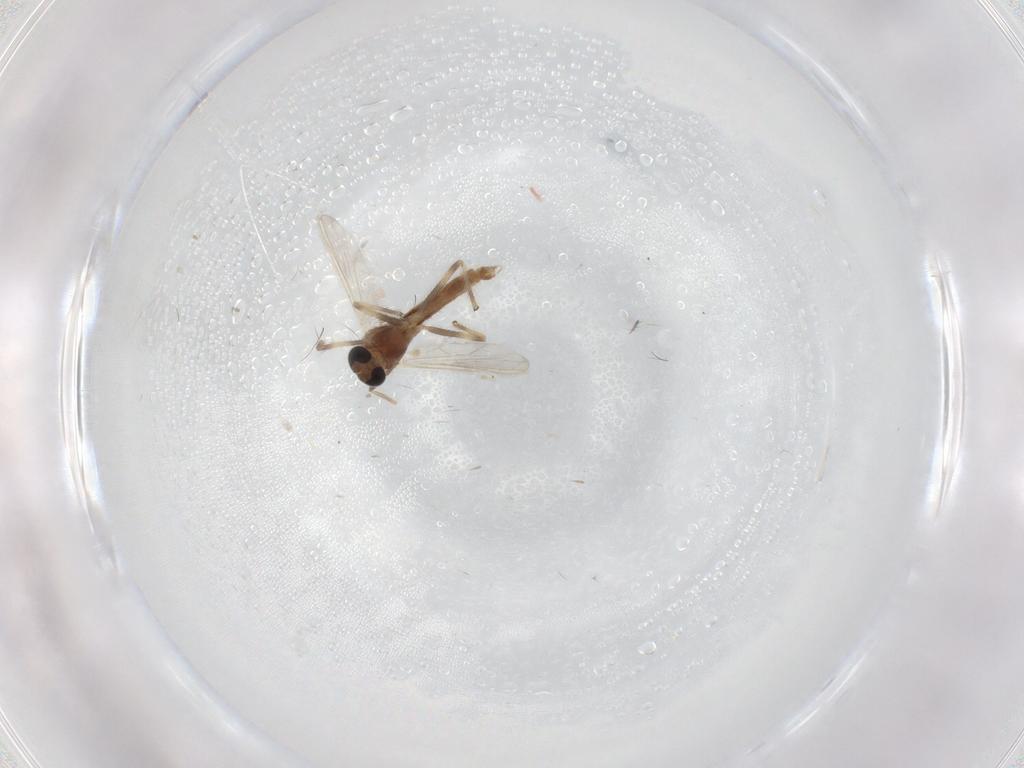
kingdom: Animalia
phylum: Arthropoda
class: Insecta
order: Diptera
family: Chironomidae
